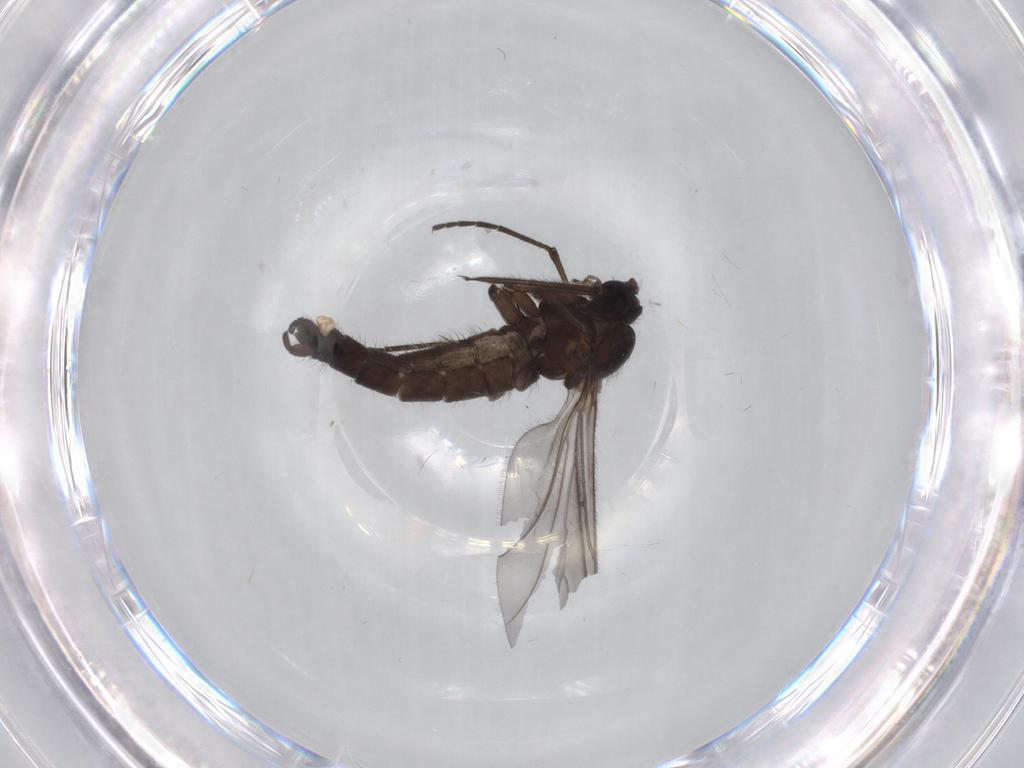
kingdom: Animalia
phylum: Arthropoda
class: Insecta
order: Diptera
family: Sciaridae
